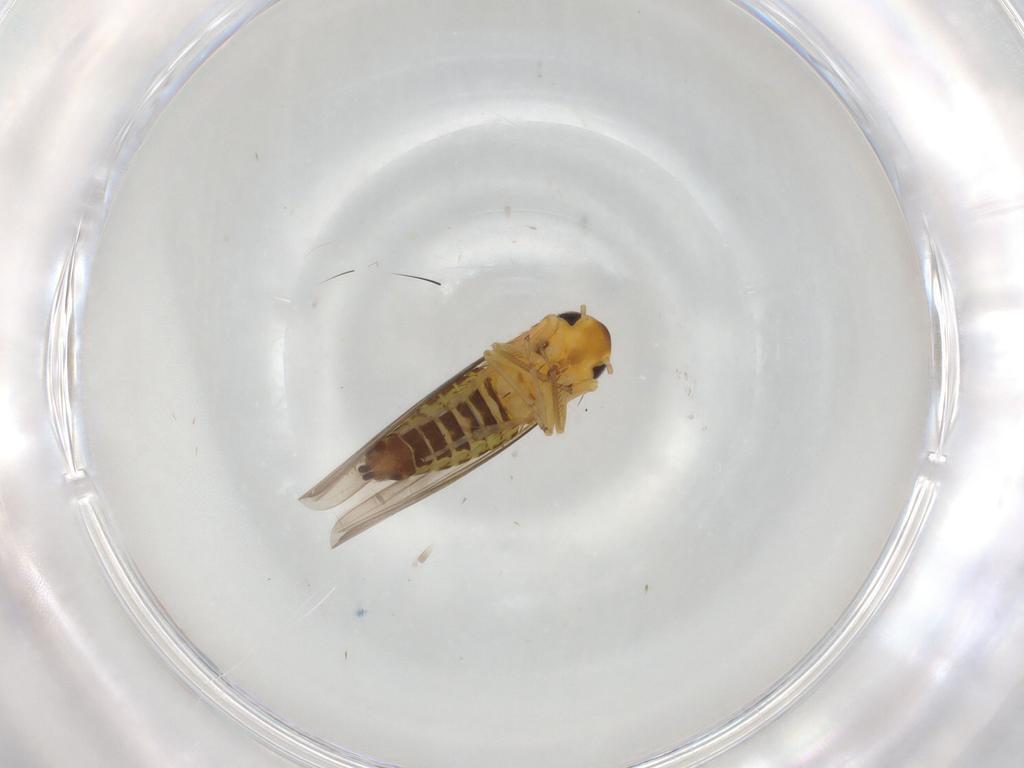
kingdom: Animalia
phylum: Arthropoda
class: Insecta
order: Hemiptera
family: Cicadellidae
